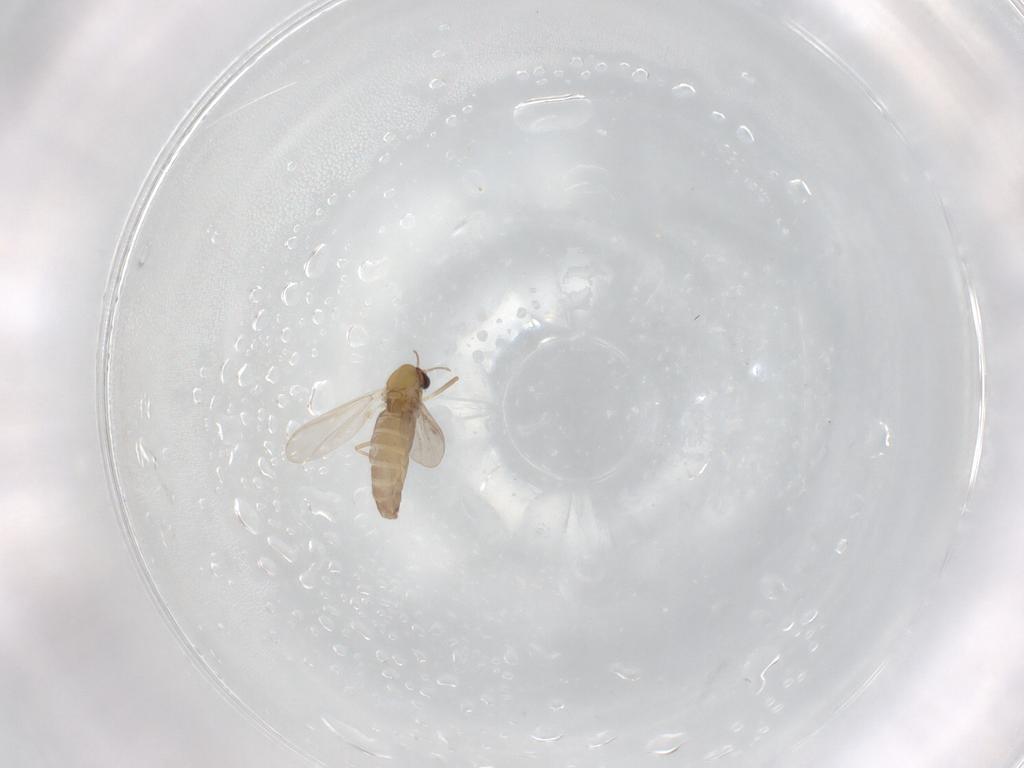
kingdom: Animalia
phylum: Arthropoda
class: Insecta
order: Diptera
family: Chironomidae
